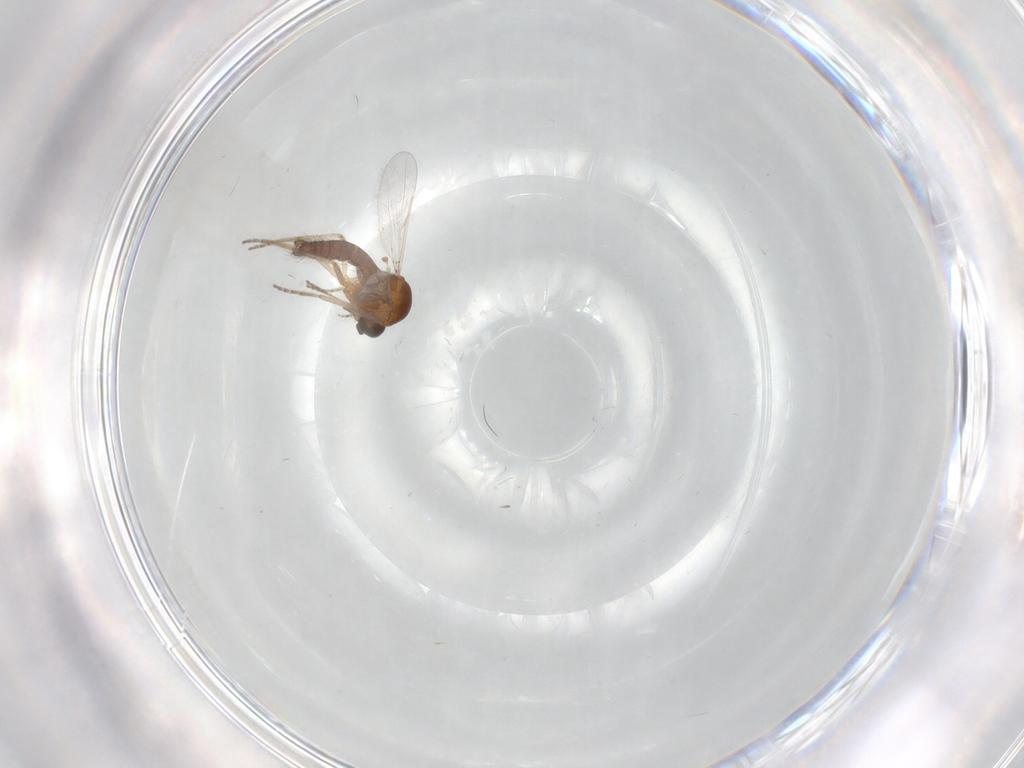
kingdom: Animalia
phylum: Arthropoda
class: Insecta
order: Diptera
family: Ceratopogonidae
